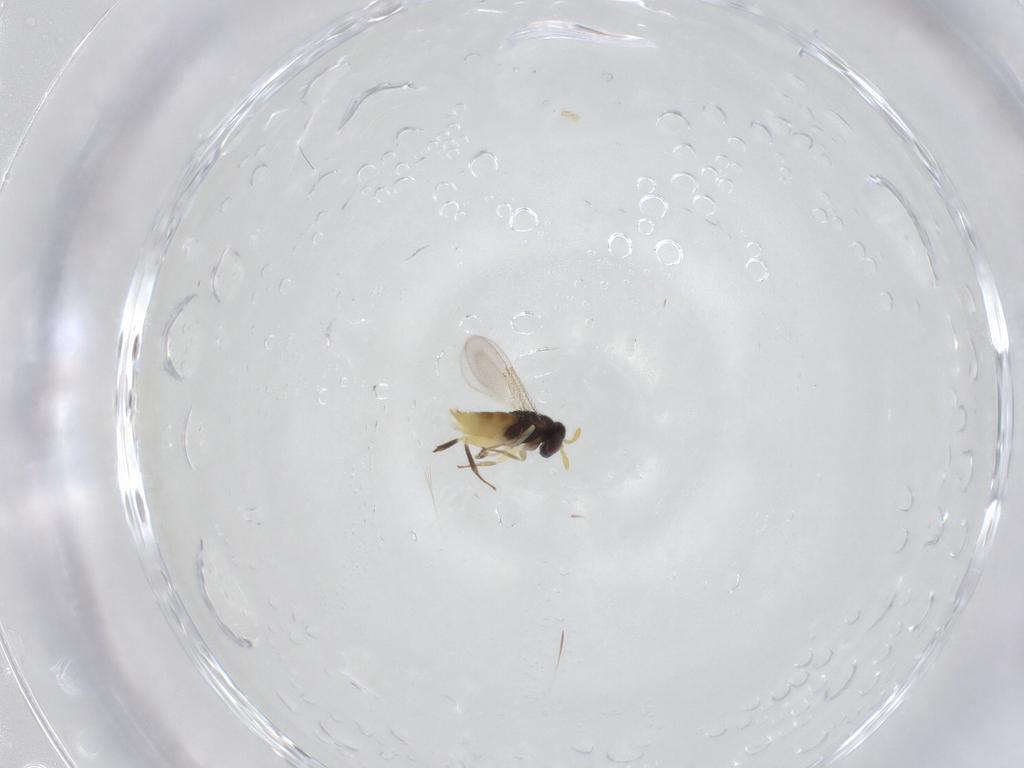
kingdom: Animalia
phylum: Arthropoda
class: Insecta
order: Hymenoptera
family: Aphelinidae
